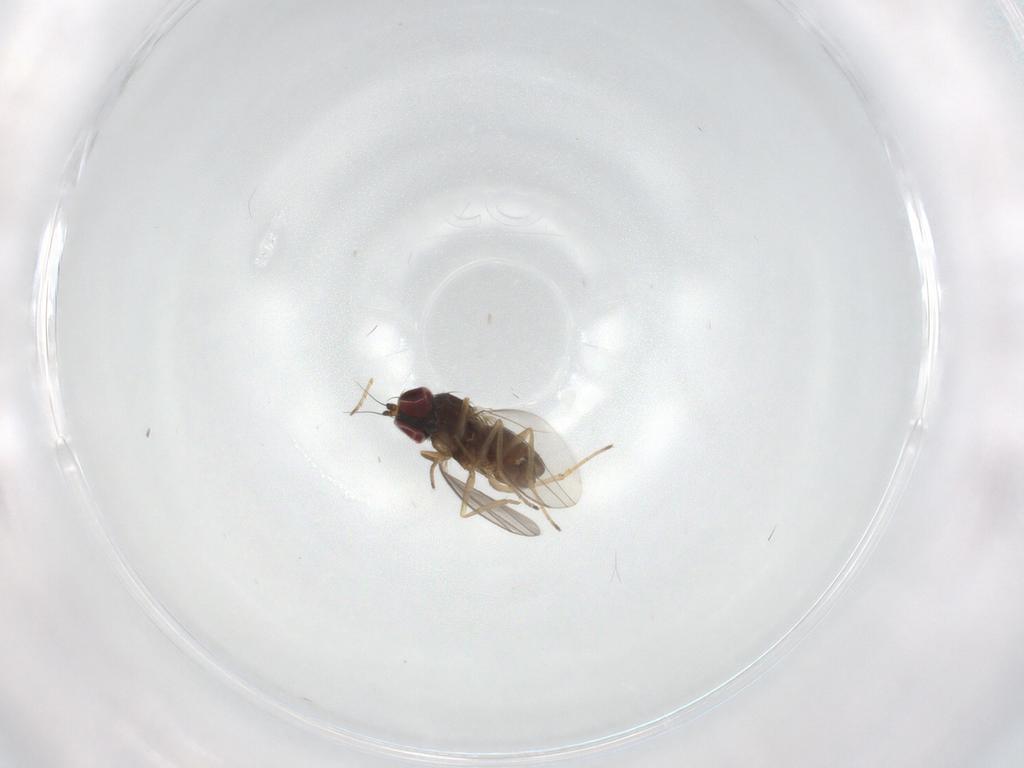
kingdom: Animalia
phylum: Arthropoda
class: Insecta
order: Diptera
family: Dolichopodidae
